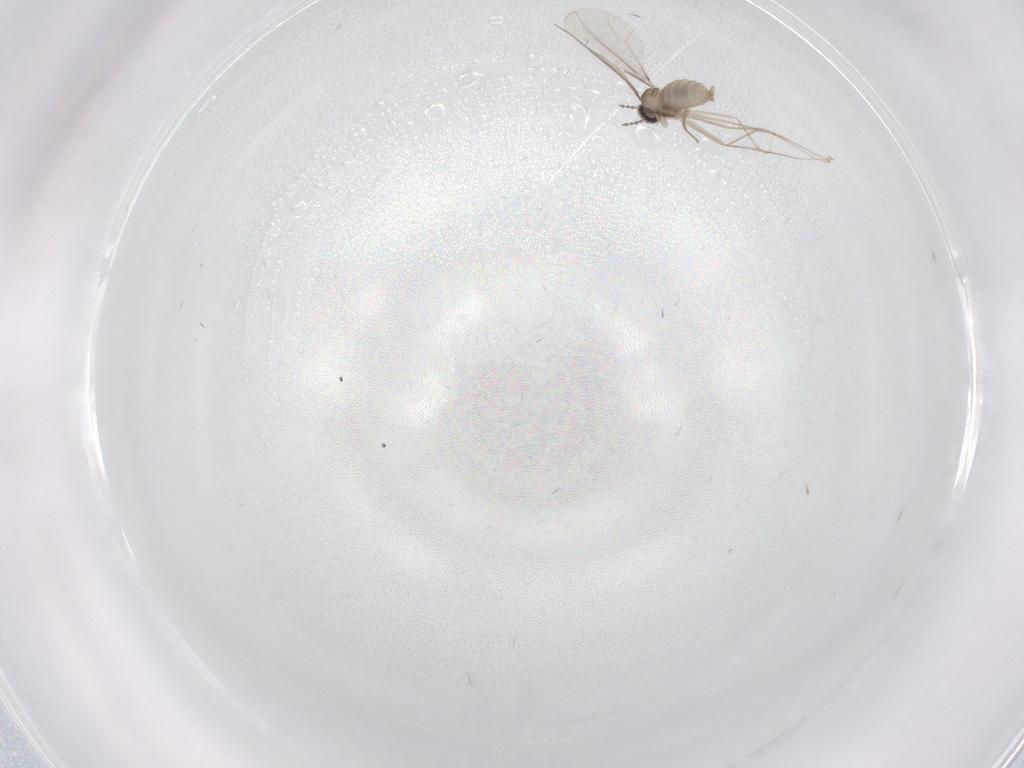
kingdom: Animalia
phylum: Arthropoda
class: Insecta
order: Diptera
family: Cecidomyiidae
